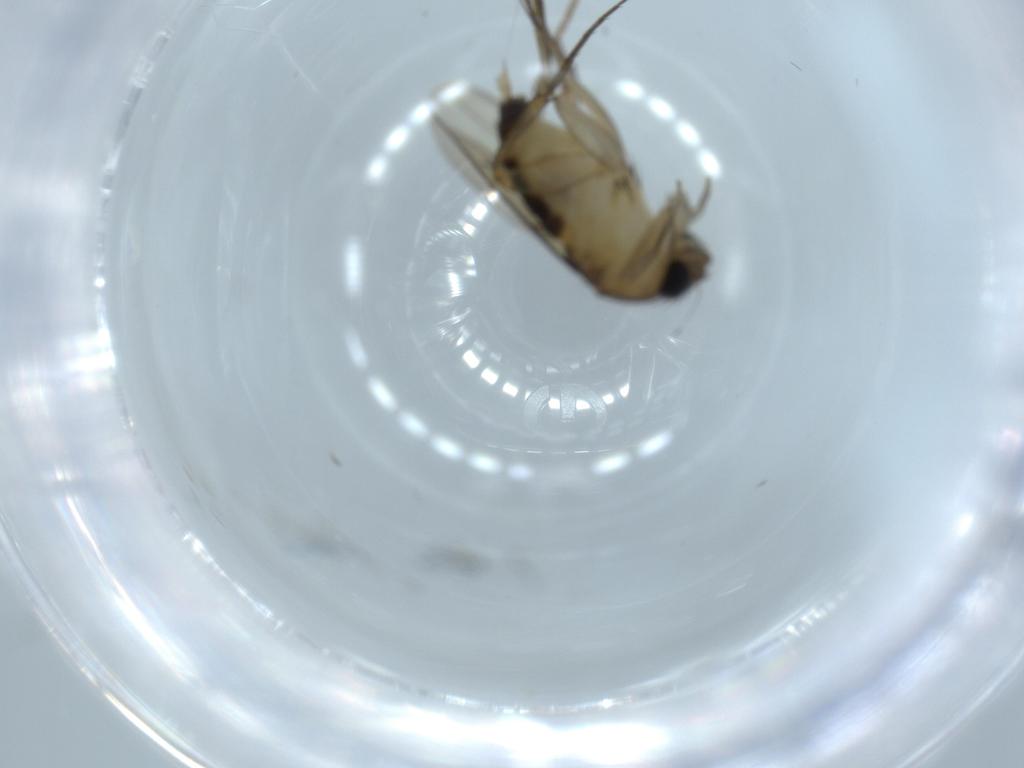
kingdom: Animalia
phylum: Arthropoda
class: Insecta
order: Diptera
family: Sciaridae
